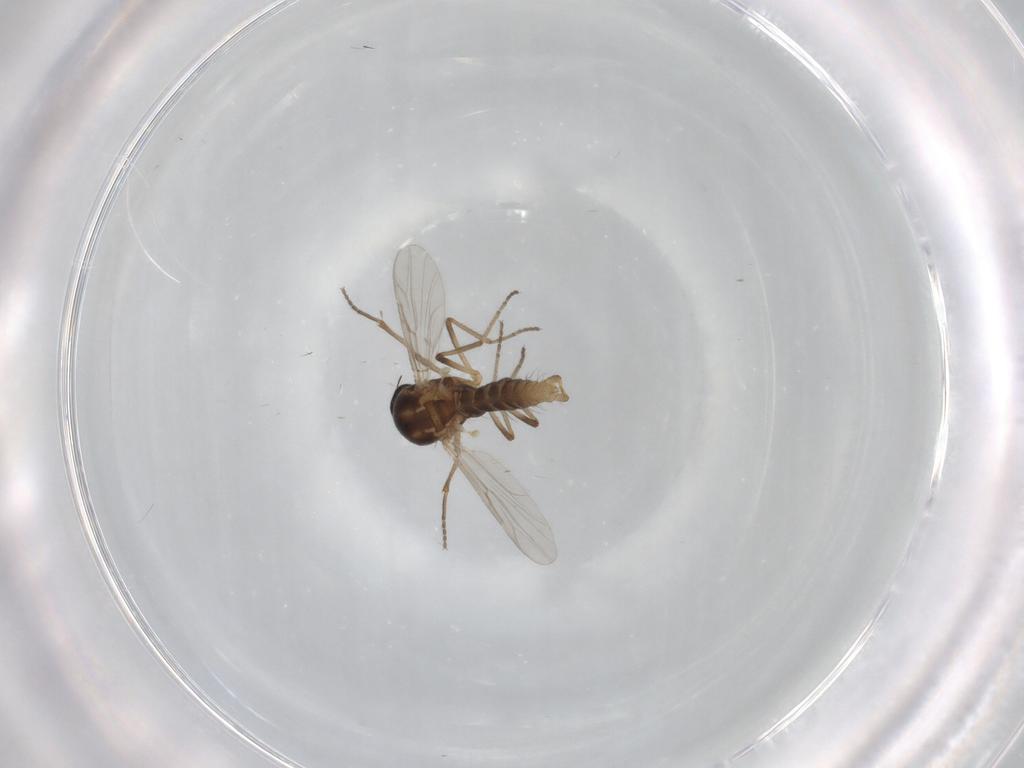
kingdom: Animalia
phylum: Arthropoda
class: Insecta
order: Diptera
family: Ceratopogonidae
